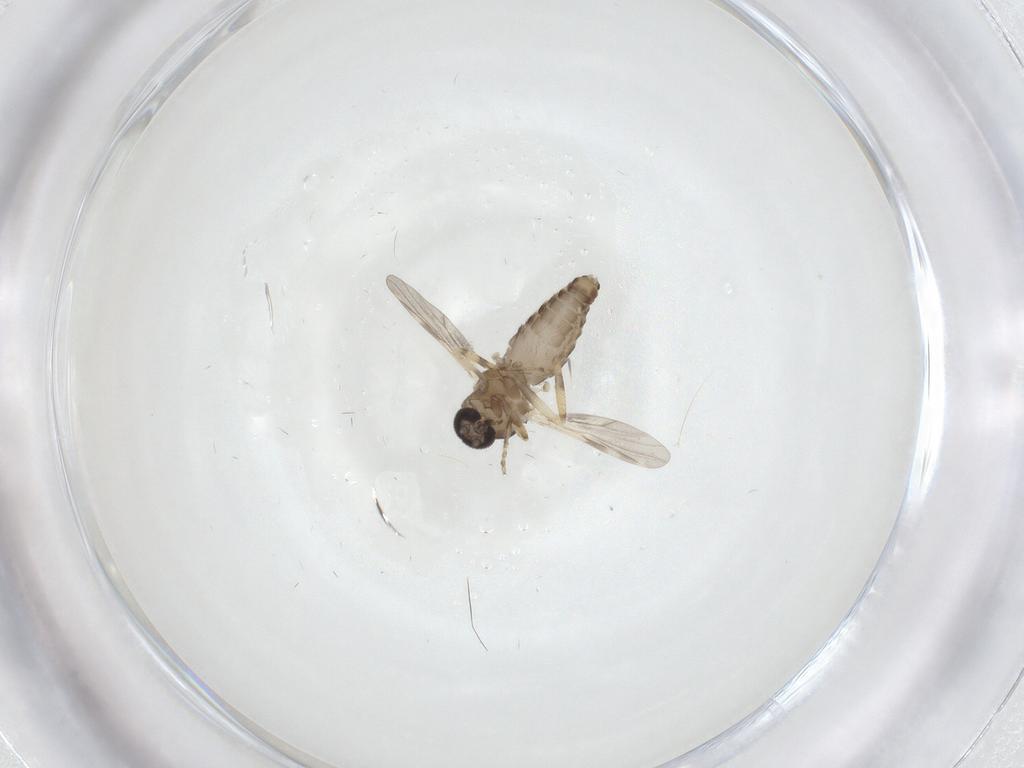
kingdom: Animalia
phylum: Arthropoda
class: Insecta
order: Diptera
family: Ceratopogonidae
